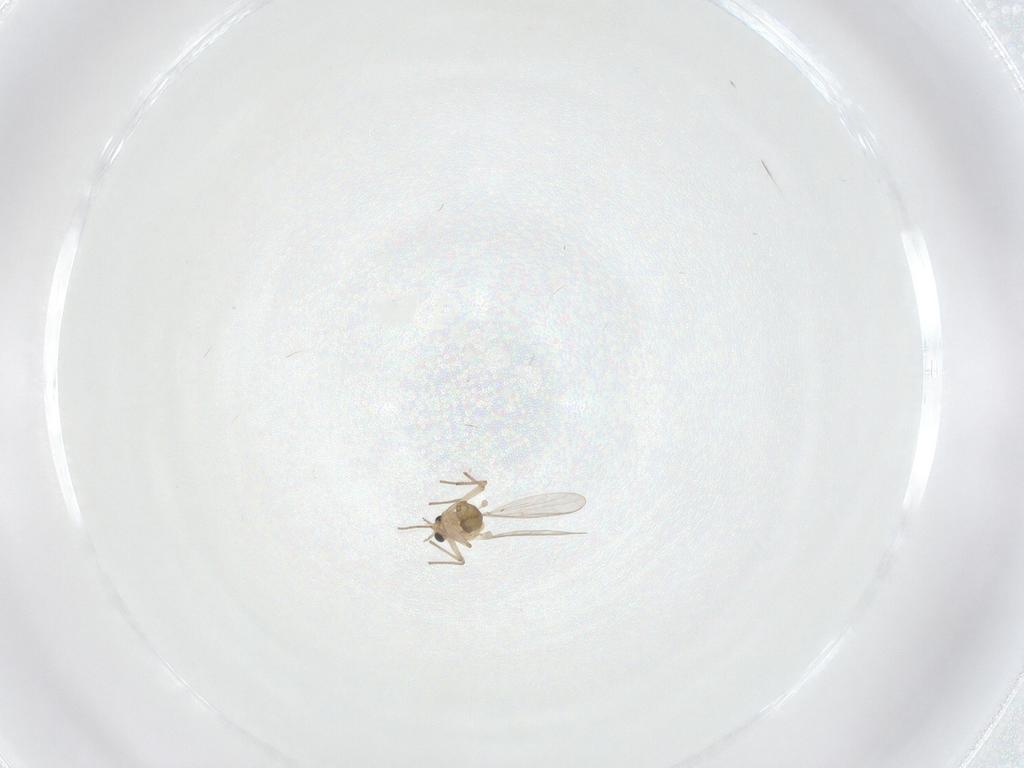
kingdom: Animalia
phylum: Arthropoda
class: Insecta
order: Diptera
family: Chironomidae
